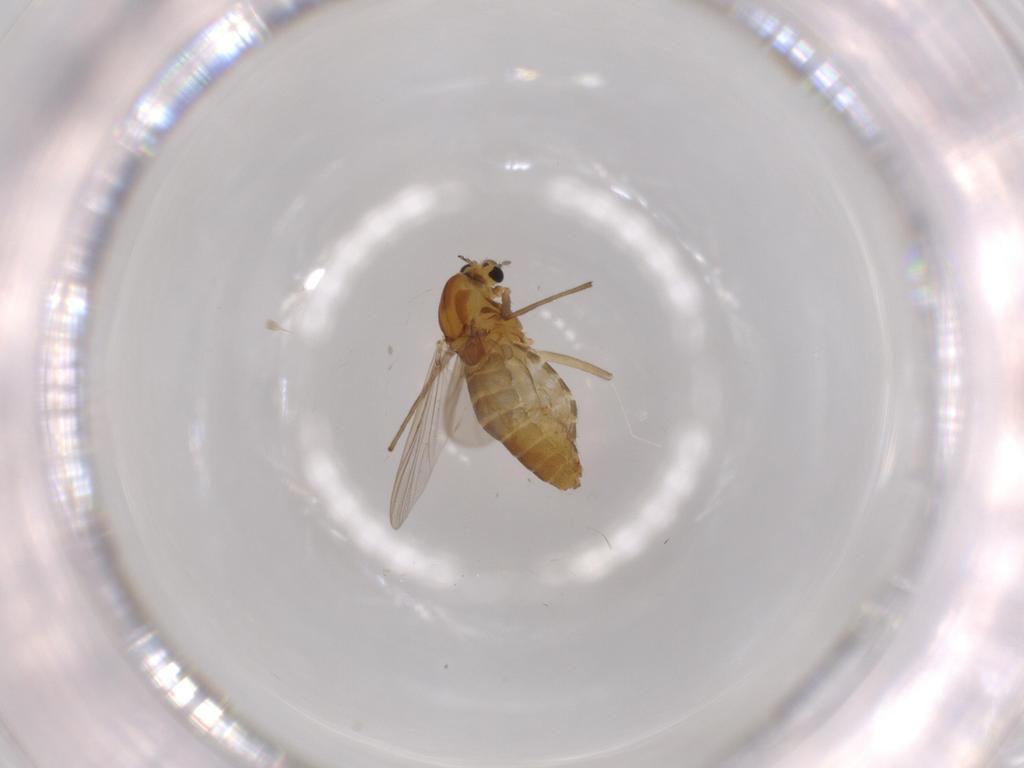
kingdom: Animalia
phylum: Arthropoda
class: Insecta
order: Diptera
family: Chironomidae
